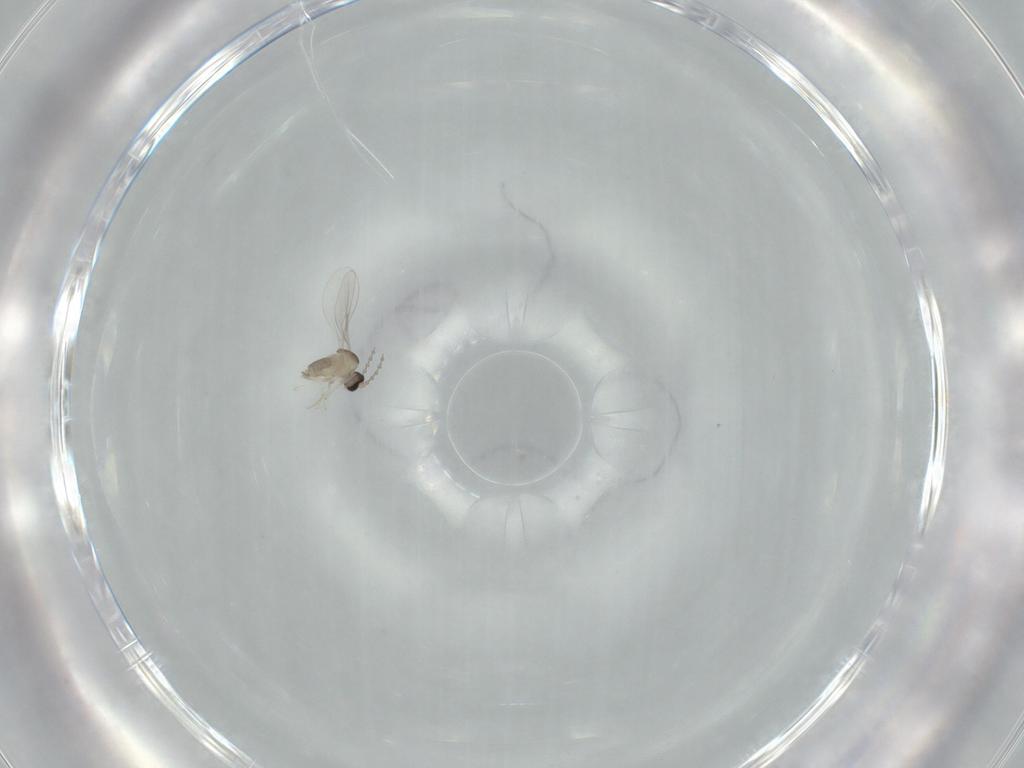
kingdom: Animalia
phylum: Arthropoda
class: Insecta
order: Diptera
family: Cecidomyiidae
